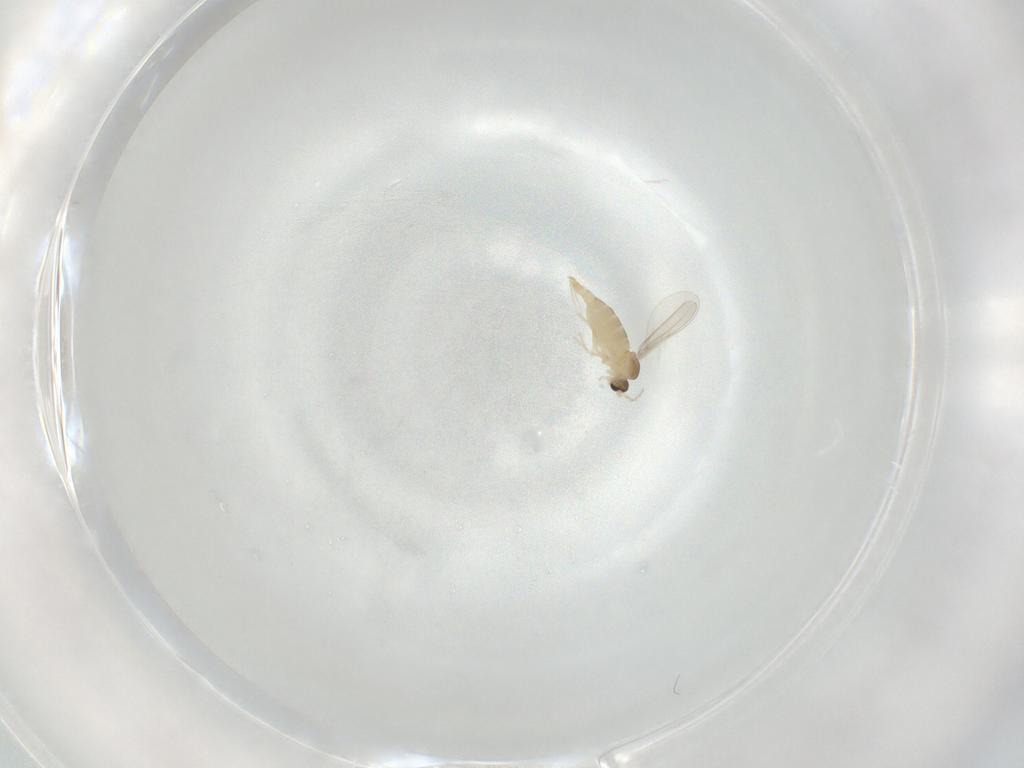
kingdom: Animalia
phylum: Arthropoda
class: Insecta
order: Diptera
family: Cecidomyiidae
